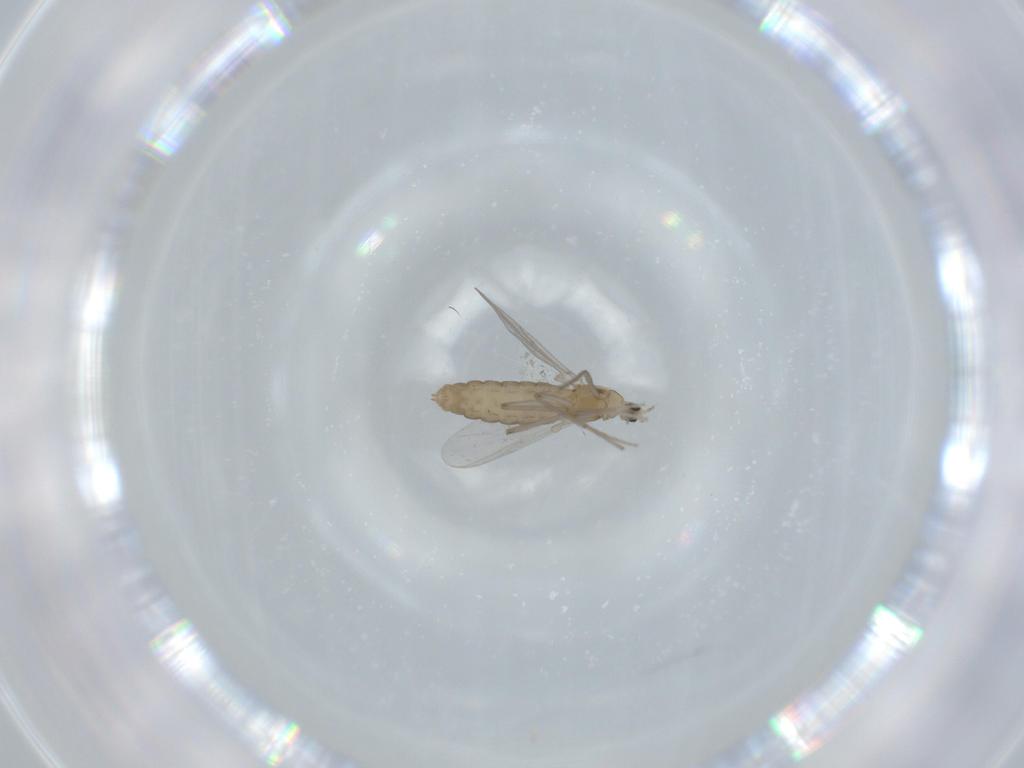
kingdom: Animalia
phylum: Arthropoda
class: Insecta
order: Diptera
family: Chironomidae
